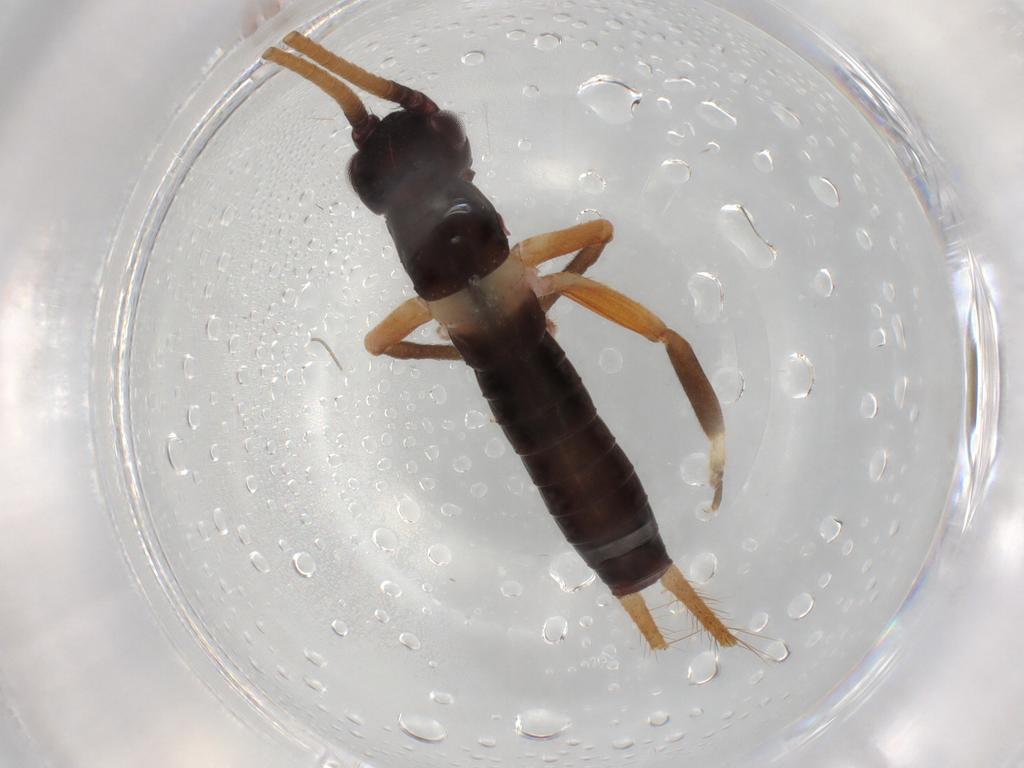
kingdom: Animalia
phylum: Arthropoda
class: Insecta
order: Orthoptera
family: Gryllidae
